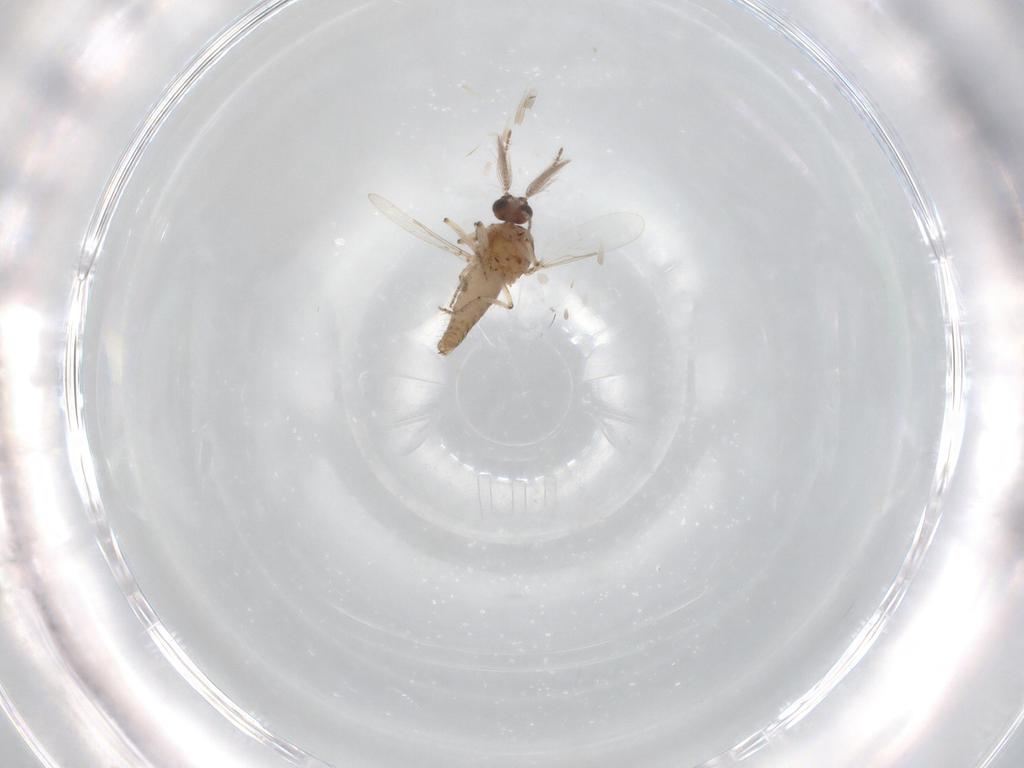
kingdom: Animalia
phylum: Arthropoda
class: Insecta
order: Diptera
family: Ceratopogonidae
